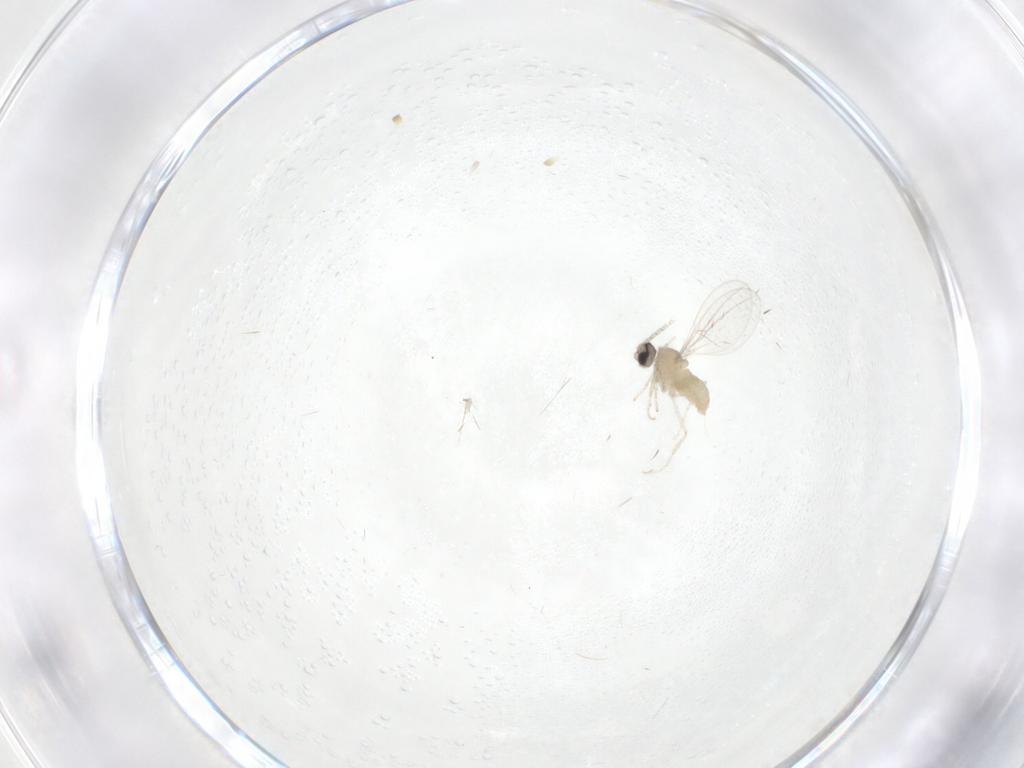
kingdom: Animalia
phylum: Arthropoda
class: Insecta
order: Diptera
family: Cecidomyiidae
